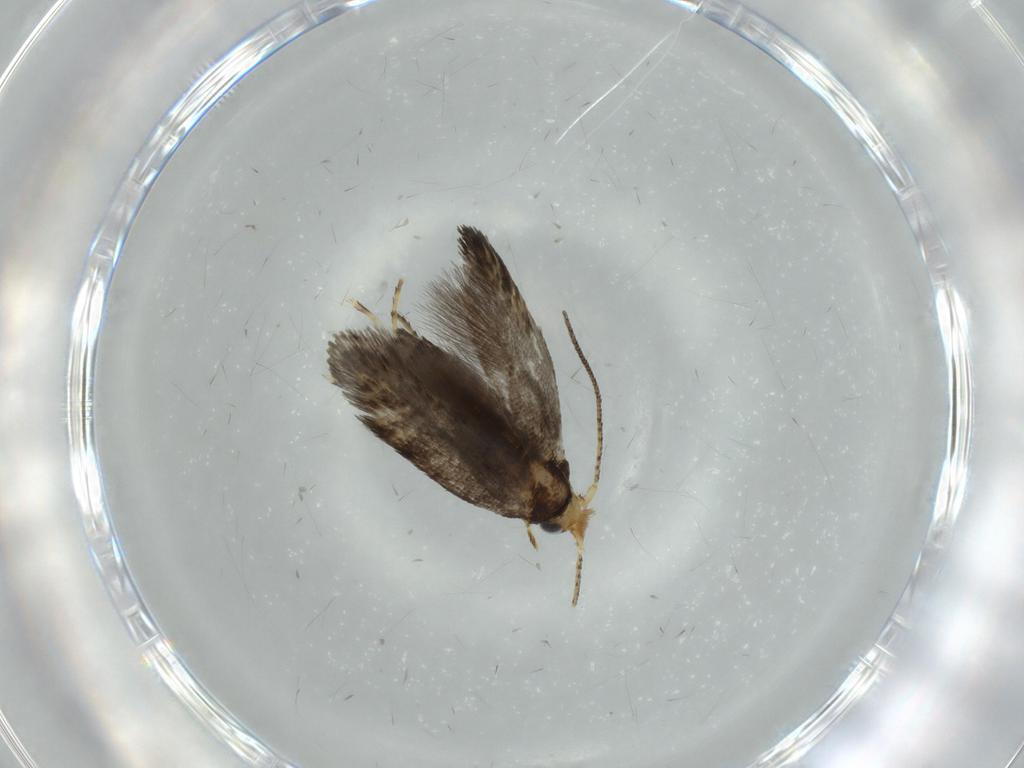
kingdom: Animalia
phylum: Arthropoda
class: Insecta
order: Lepidoptera
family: Argyresthiidae
